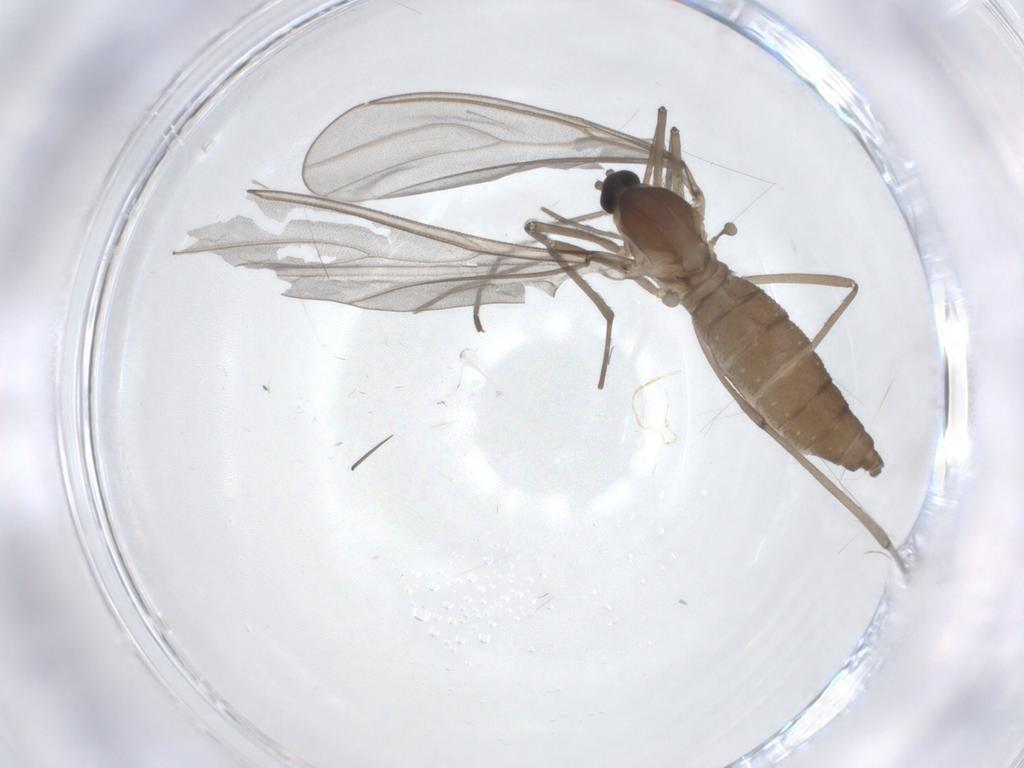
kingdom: Animalia
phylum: Arthropoda
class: Insecta
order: Diptera
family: Cecidomyiidae
